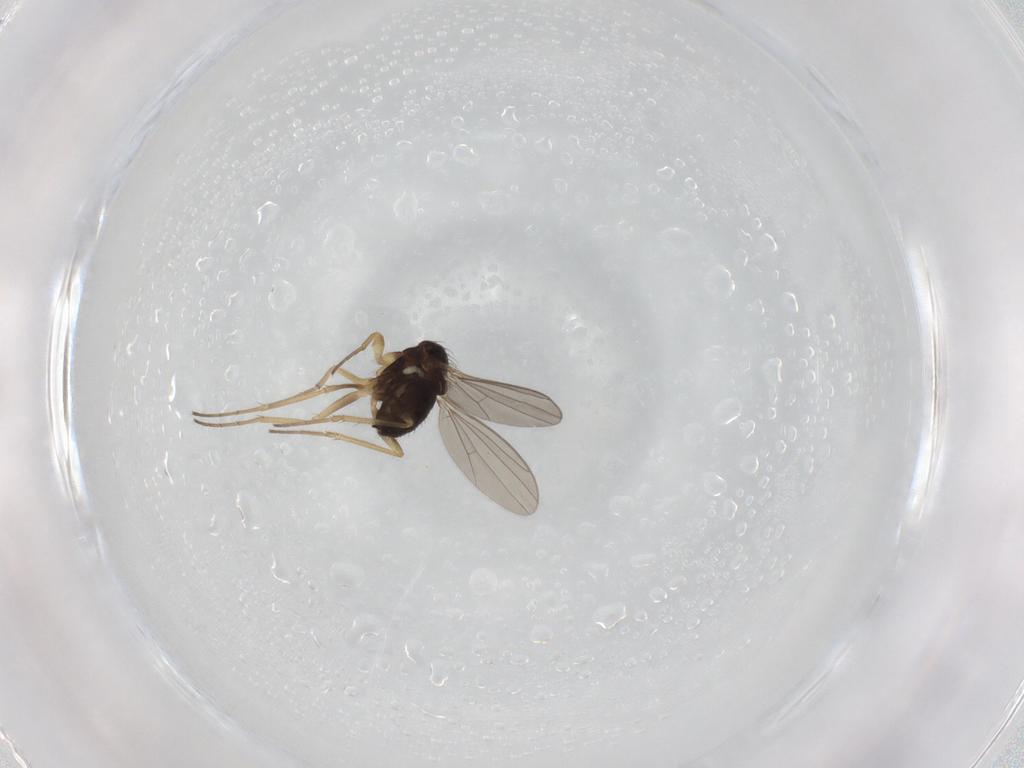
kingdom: Animalia
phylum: Arthropoda
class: Insecta
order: Diptera
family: Dolichopodidae
